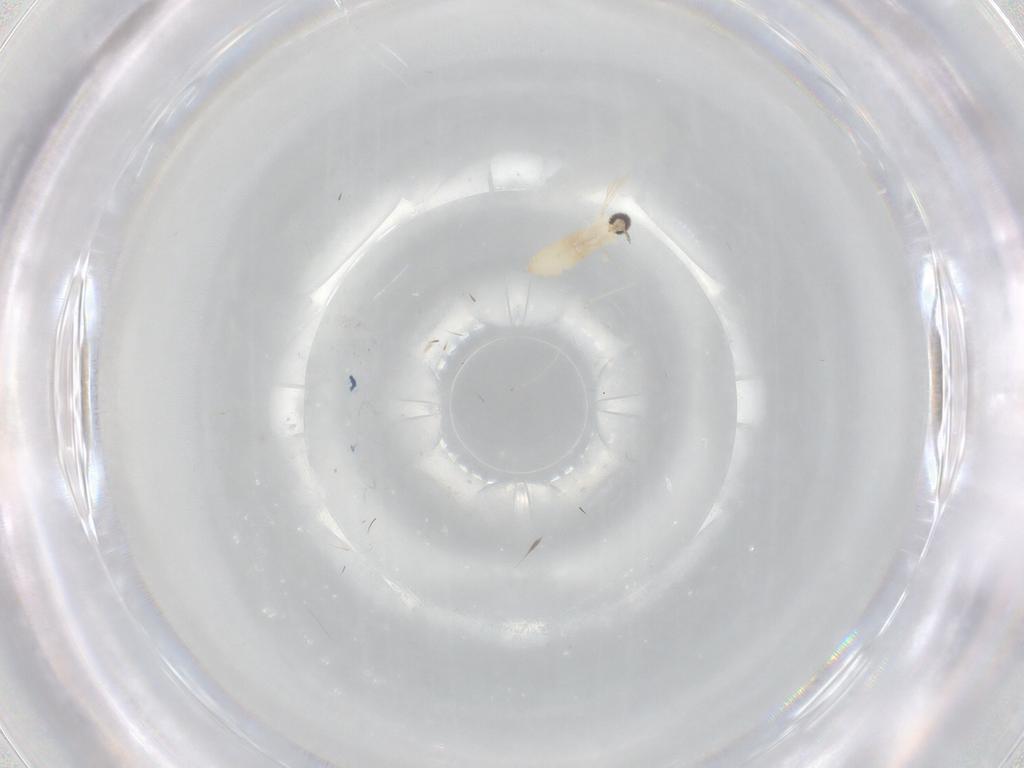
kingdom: Animalia
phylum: Arthropoda
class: Insecta
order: Diptera
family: Cecidomyiidae
